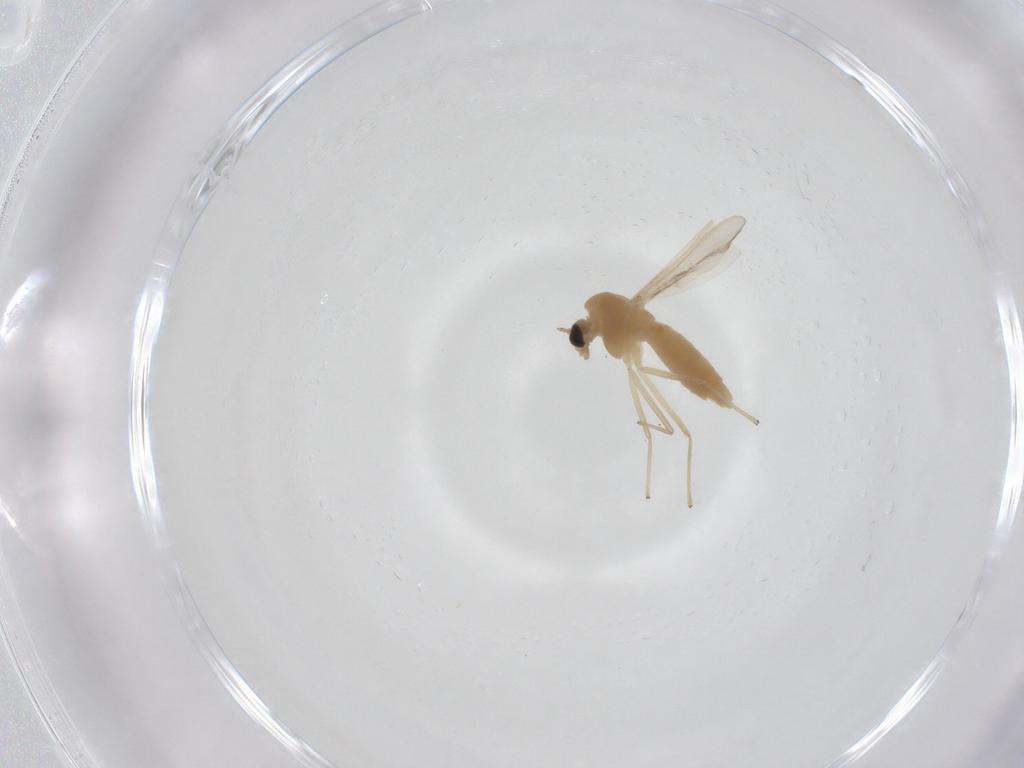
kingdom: Animalia
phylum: Arthropoda
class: Insecta
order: Diptera
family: Chironomidae
